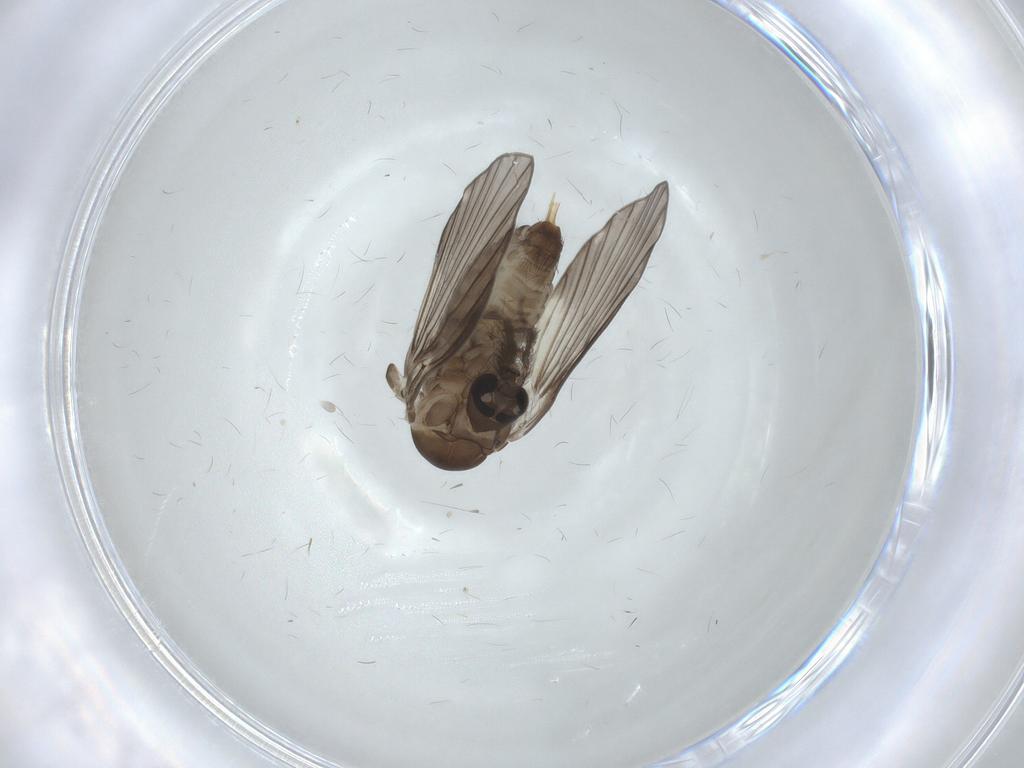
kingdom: Animalia
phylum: Arthropoda
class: Insecta
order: Diptera
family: Psychodidae
